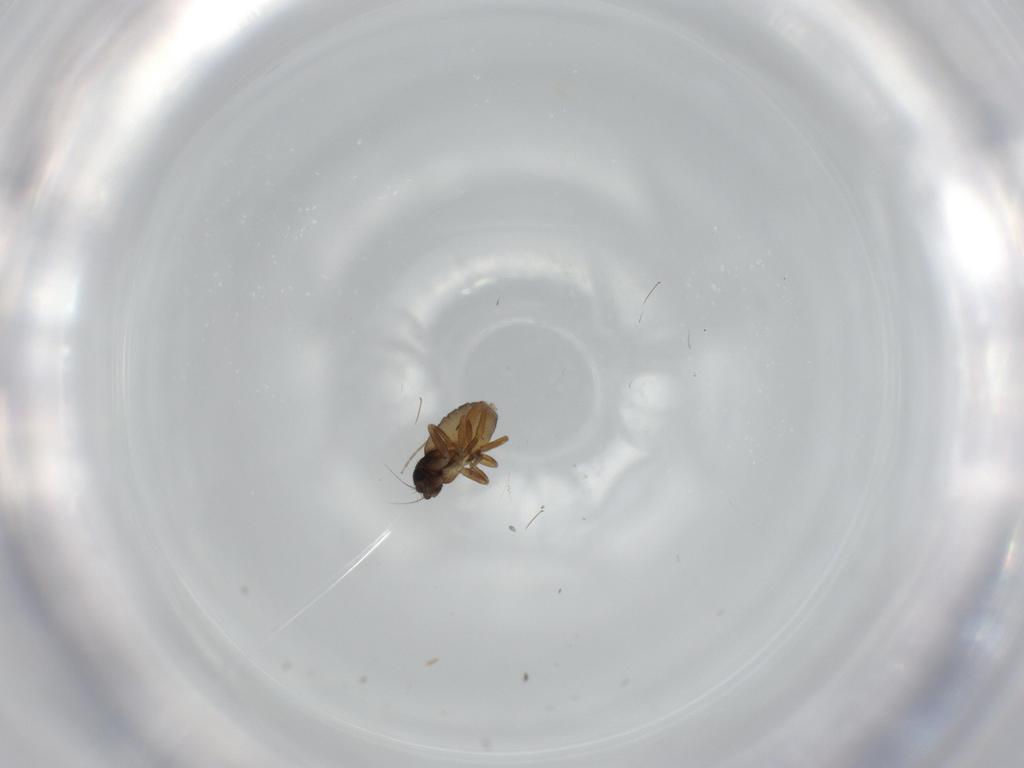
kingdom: Animalia
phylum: Arthropoda
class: Insecta
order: Diptera
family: Phoridae
